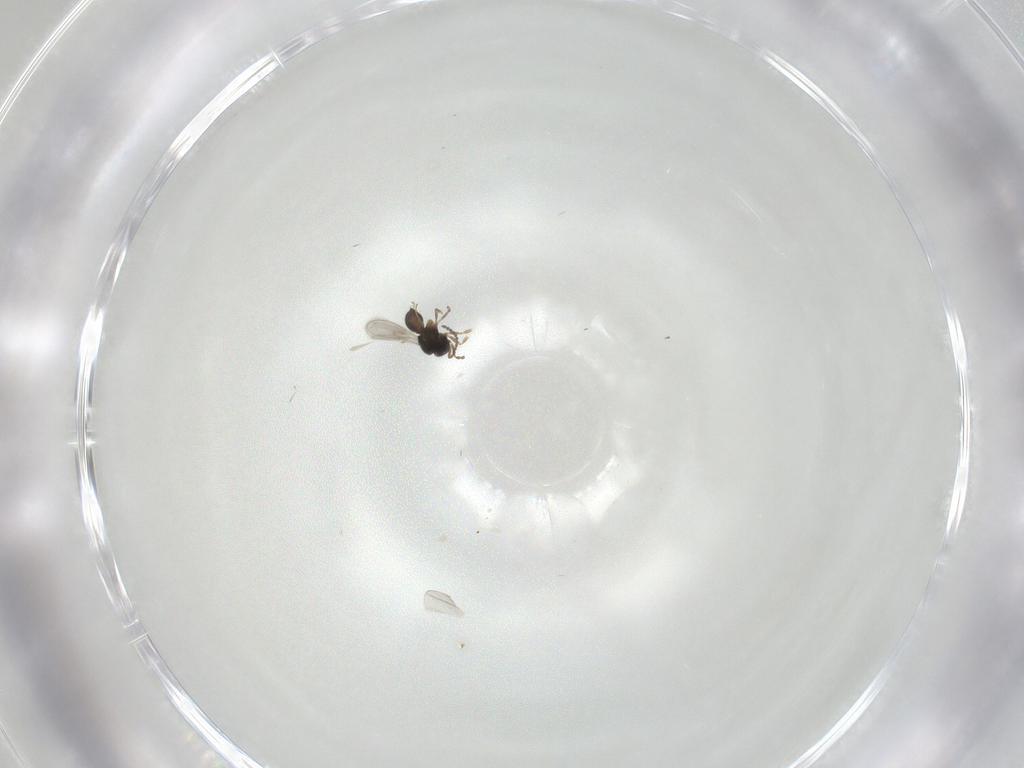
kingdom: Animalia
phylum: Arthropoda
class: Insecta
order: Hymenoptera
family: Scelionidae
